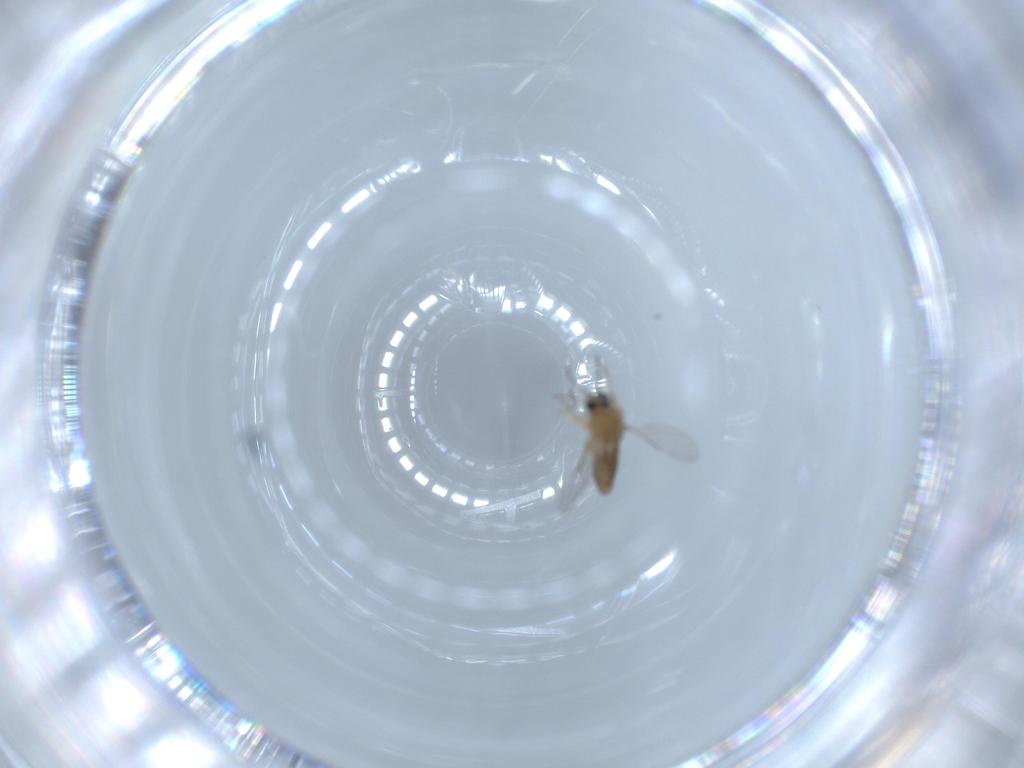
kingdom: Animalia
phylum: Arthropoda
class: Insecta
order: Diptera
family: Ceratopogonidae
